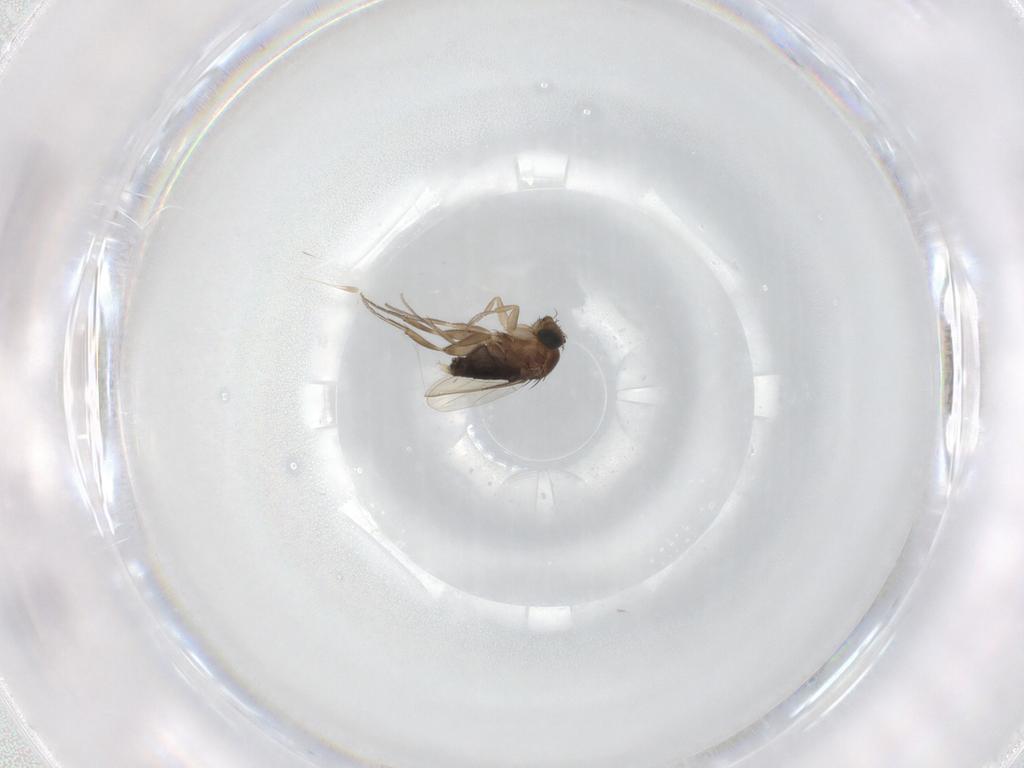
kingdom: Animalia
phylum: Arthropoda
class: Insecta
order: Diptera
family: Phoridae
